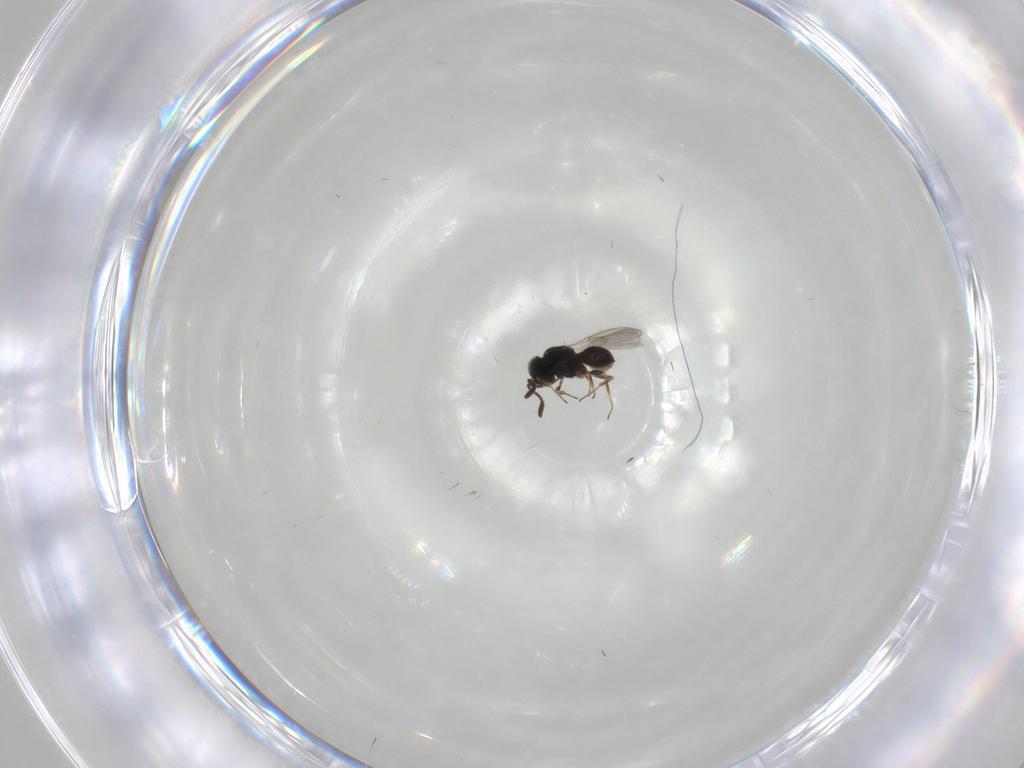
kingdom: Animalia
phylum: Arthropoda
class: Insecta
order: Hymenoptera
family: Scelionidae
